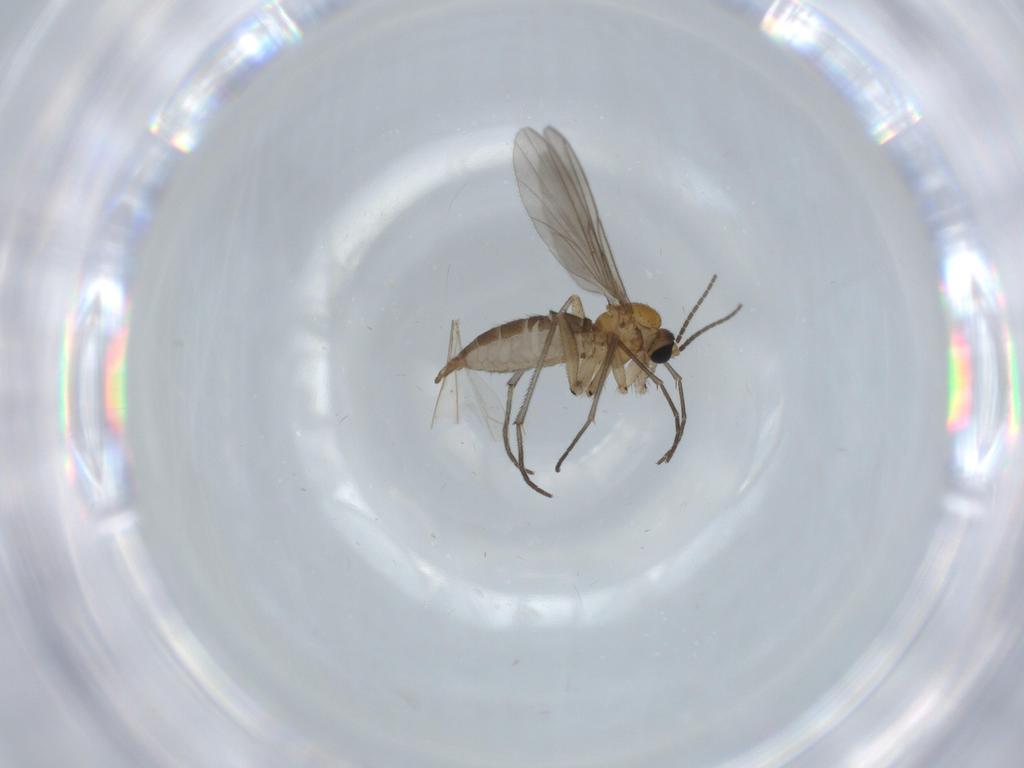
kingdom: Animalia
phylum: Arthropoda
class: Insecta
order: Diptera
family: Sciaridae
